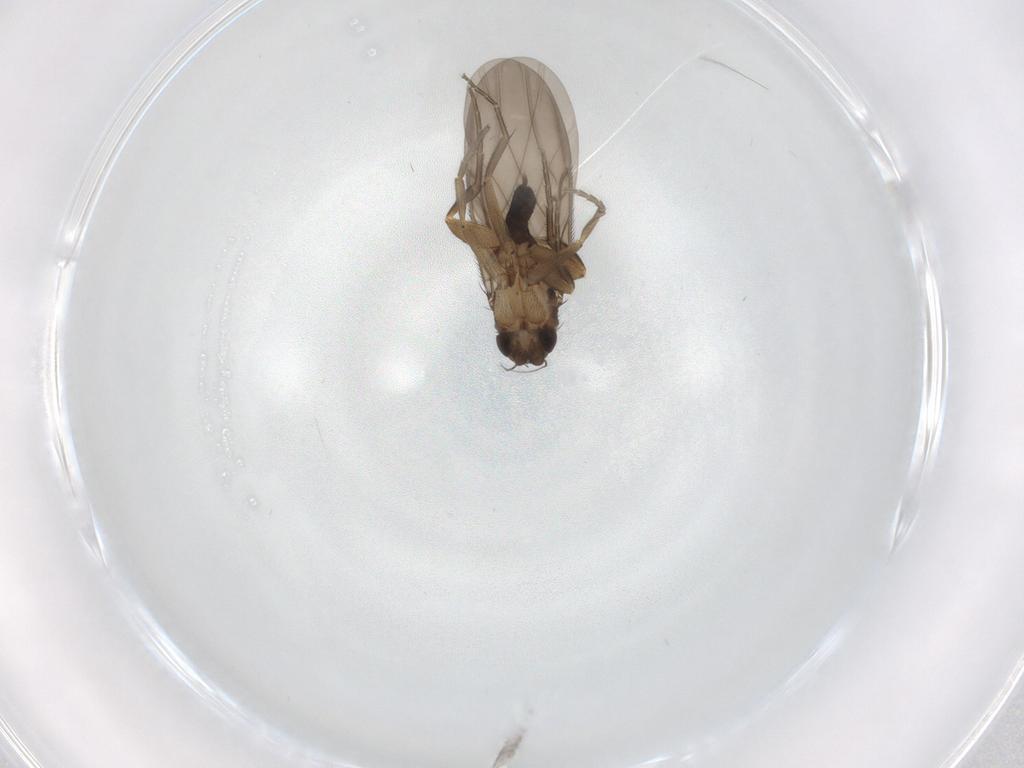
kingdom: Animalia
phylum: Arthropoda
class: Insecta
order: Diptera
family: Phoridae
